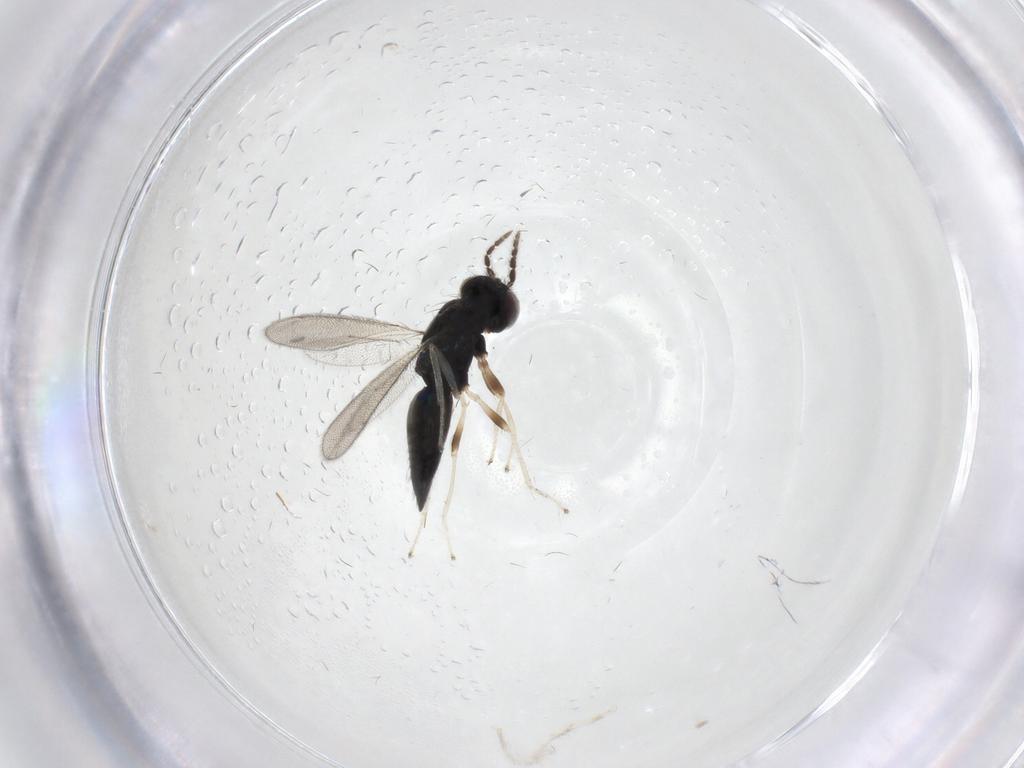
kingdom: Animalia
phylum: Arthropoda
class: Insecta
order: Hymenoptera
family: Eulophidae
